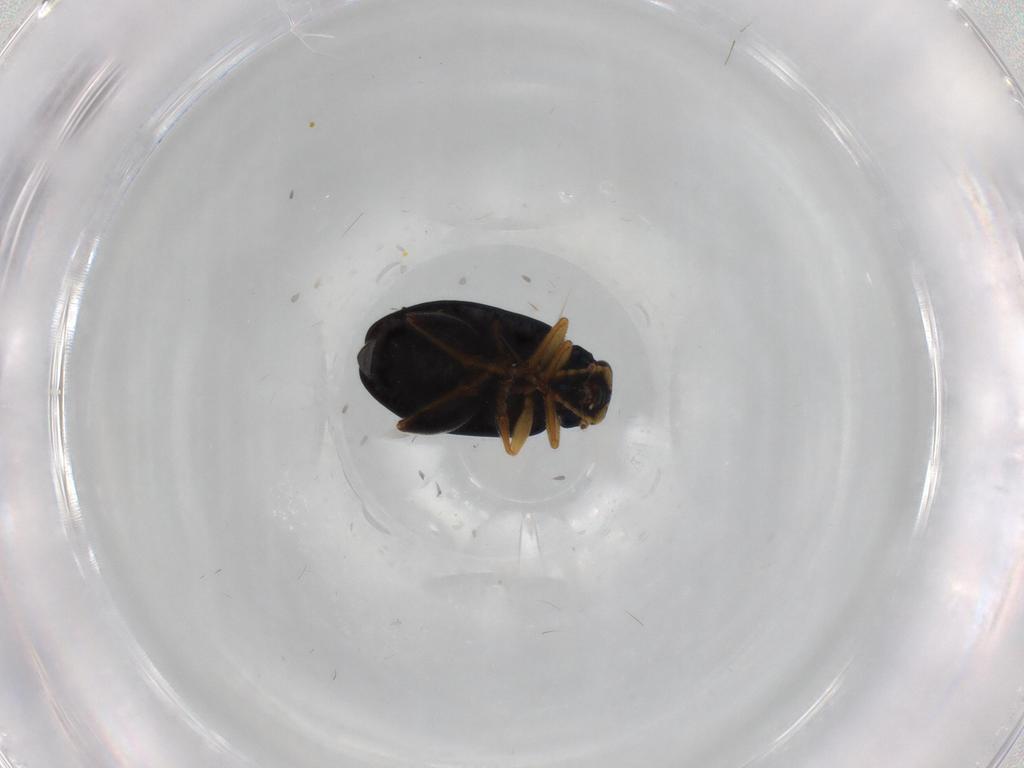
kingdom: Animalia
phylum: Arthropoda
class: Insecta
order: Coleoptera
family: Chrysomelidae
